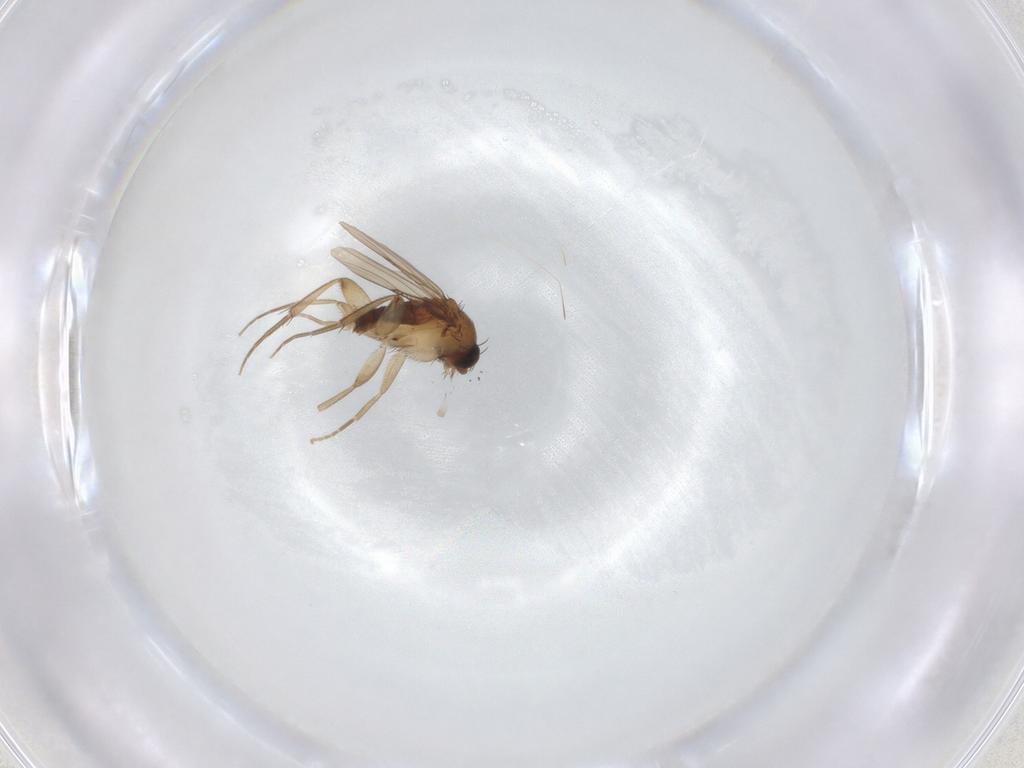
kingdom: Animalia
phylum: Arthropoda
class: Insecta
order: Diptera
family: Phoridae
